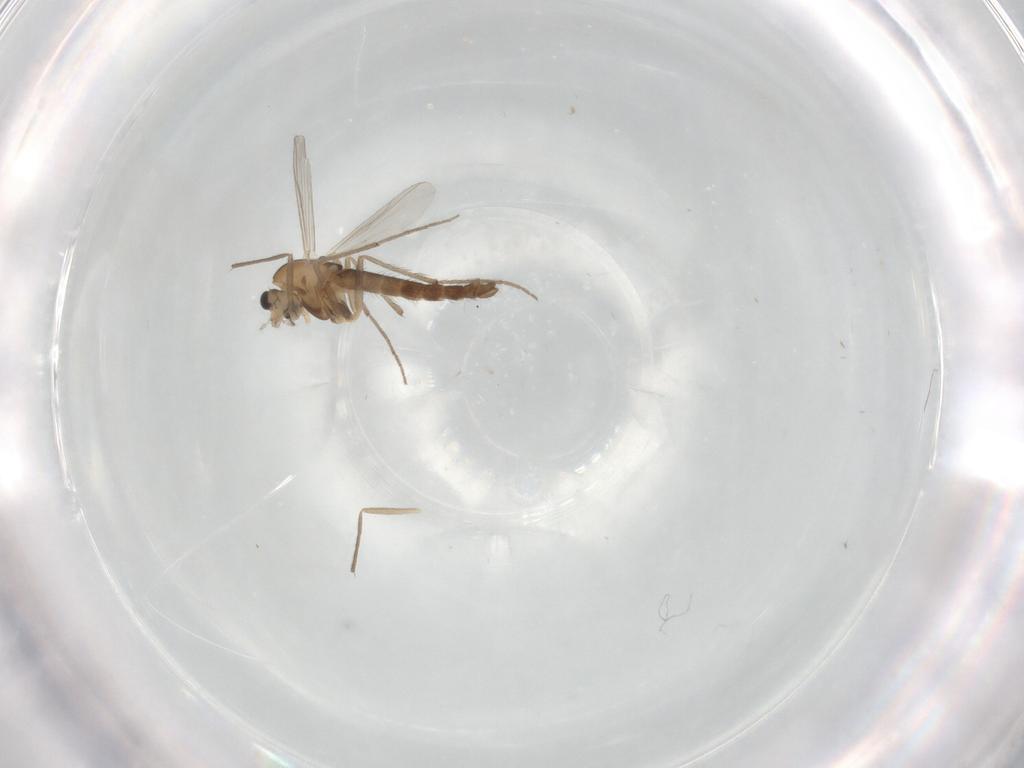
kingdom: Animalia
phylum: Arthropoda
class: Insecta
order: Diptera
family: Chironomidae
